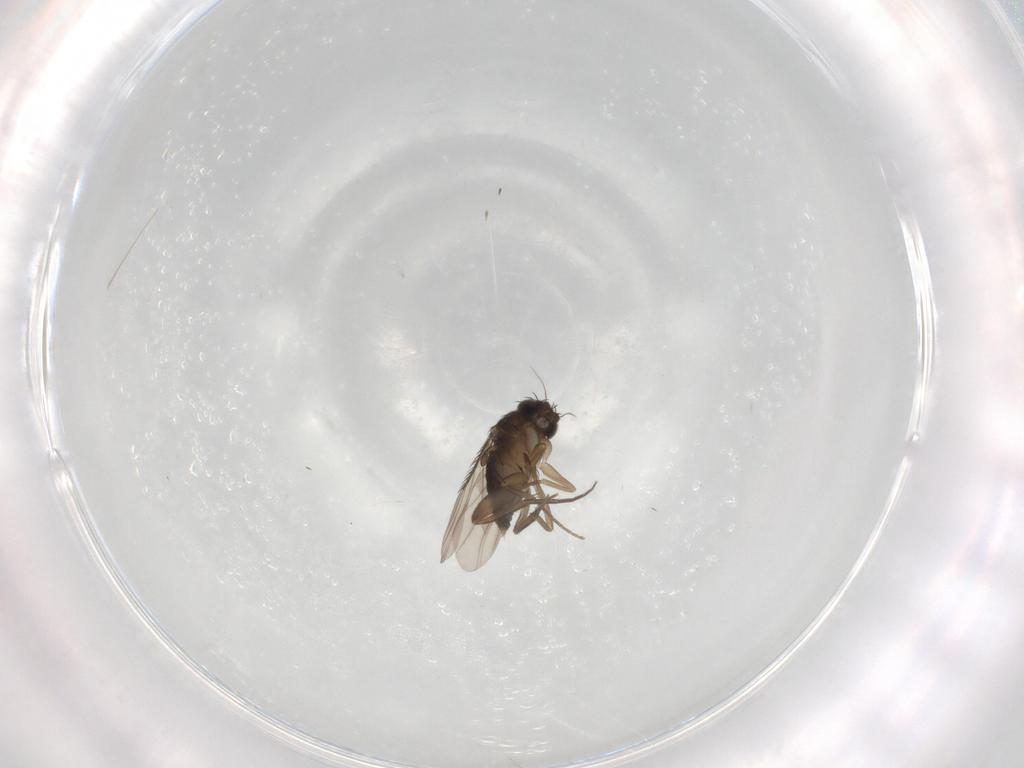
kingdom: Animalia
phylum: Arthropoda
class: Insecta
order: Diptera
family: Phoridae
